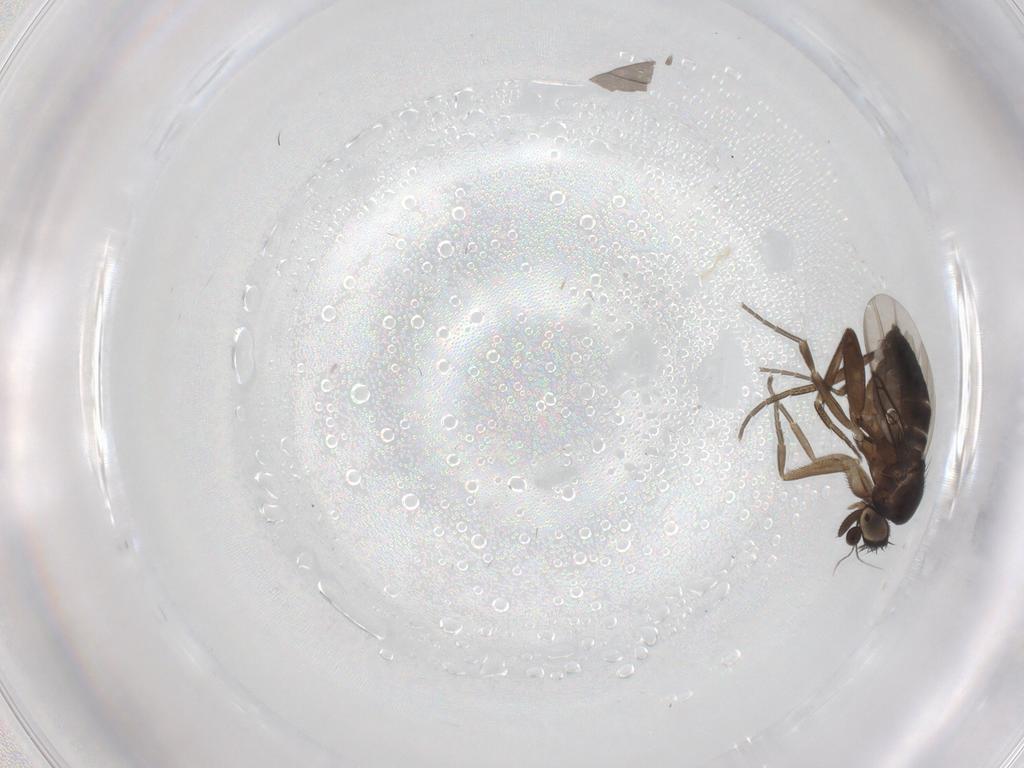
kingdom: Animalia
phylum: Arthropoda
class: Insecta
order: Diptera
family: Phoridae
